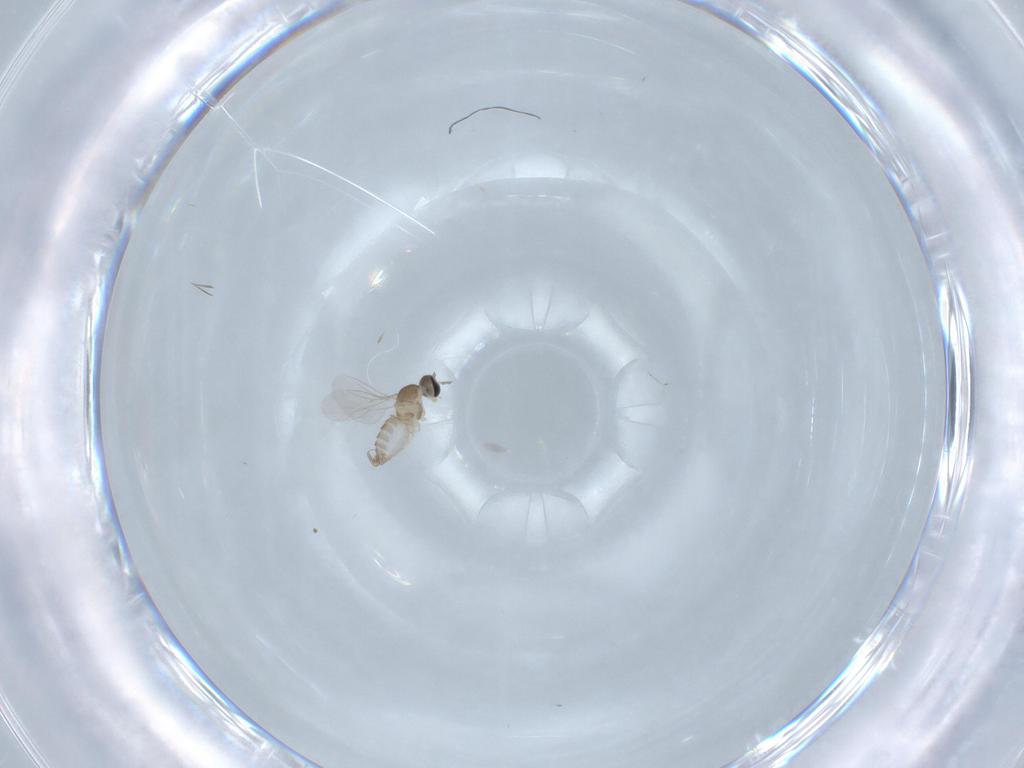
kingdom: Animalia
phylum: Arthropoda
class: Insecta
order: Diptera
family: Cecidomyiidae
